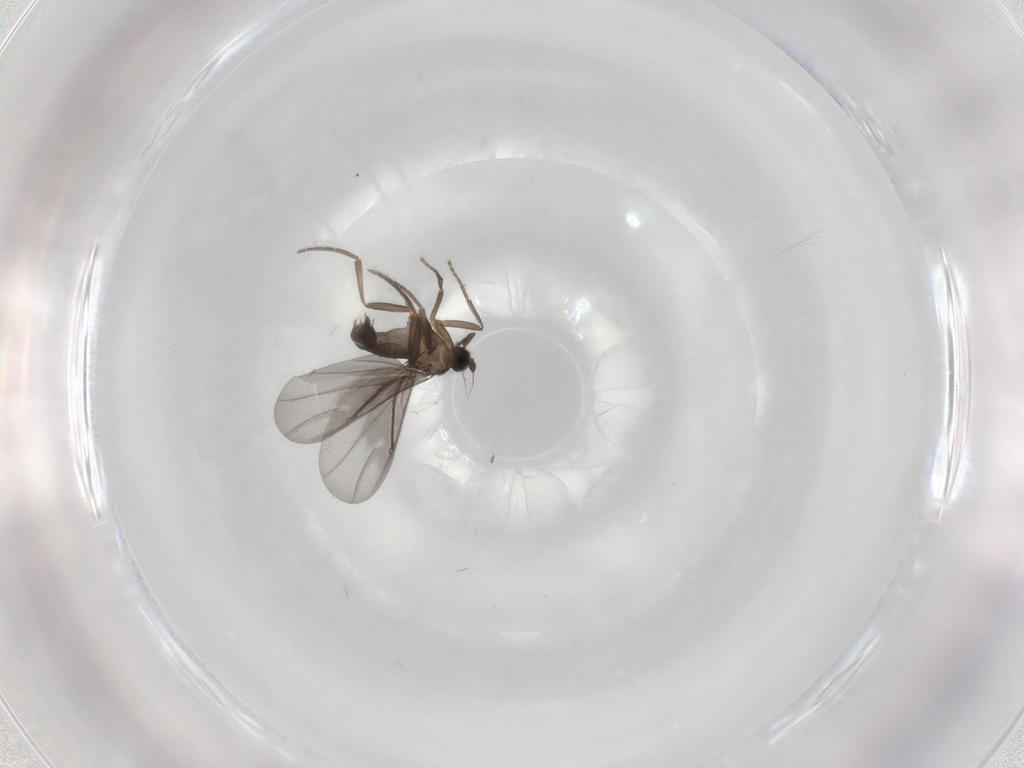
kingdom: Animalia
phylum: Arthropoda
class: Insecta
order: Diptera
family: Phoridae
